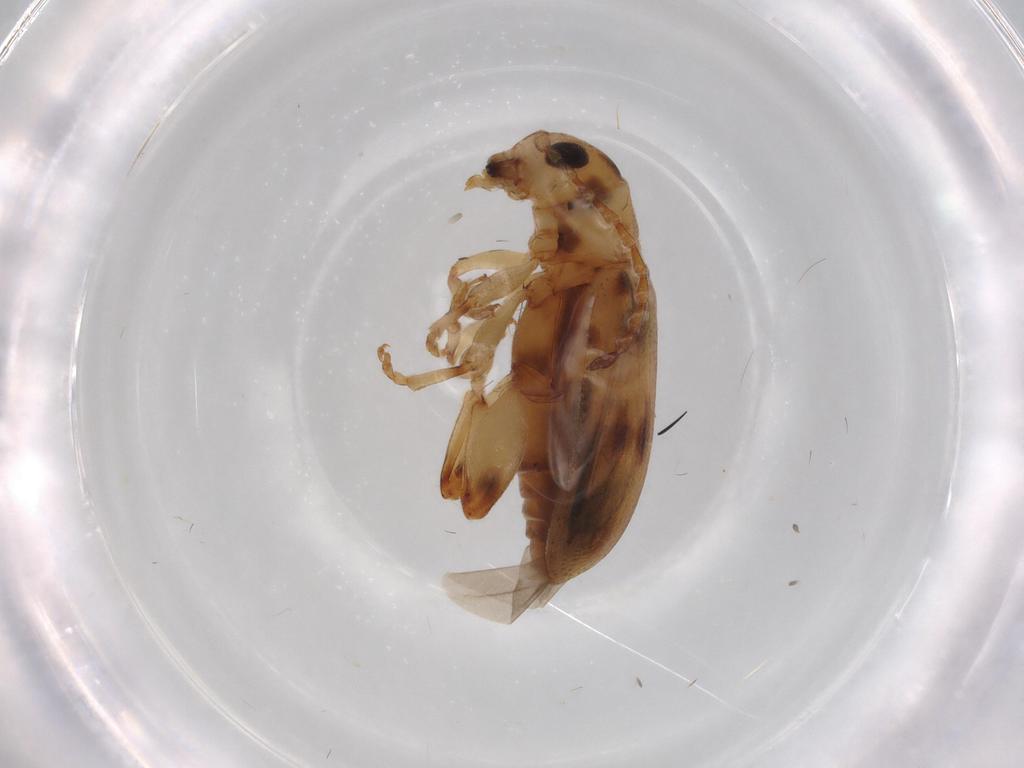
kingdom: Animalia
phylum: Arthropoda
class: Insecta
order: Coleoptera
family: Chrysomelidae
